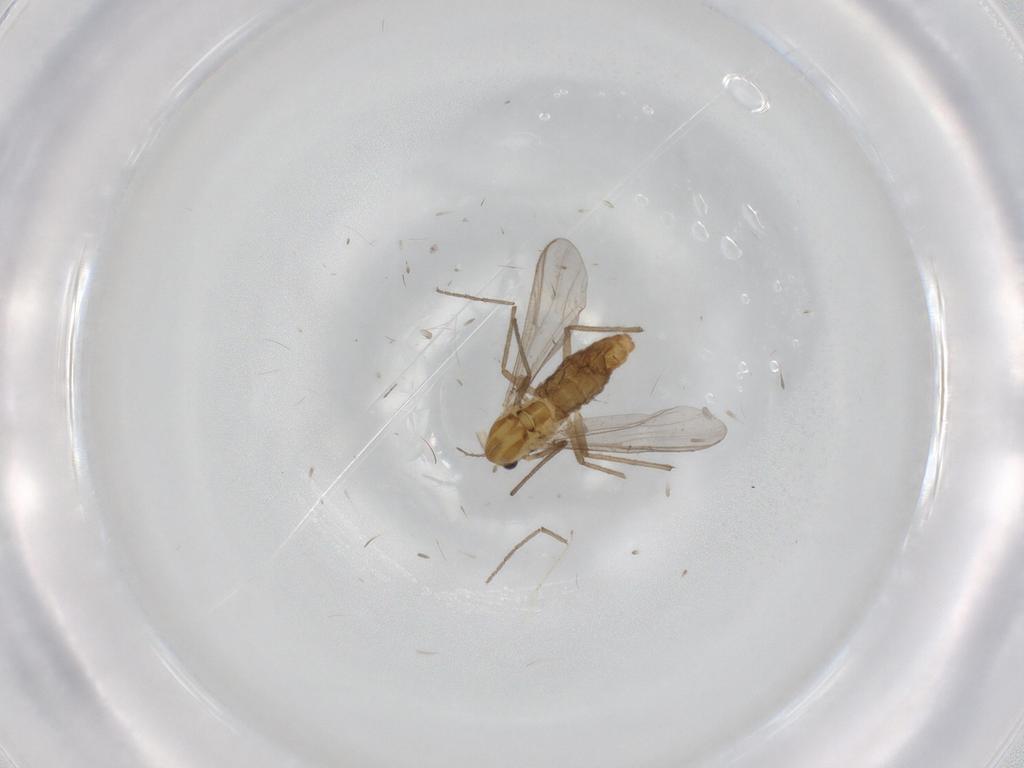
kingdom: Animalia
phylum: Arthropoda
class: Insecta
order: Diptera
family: Chironomidae
